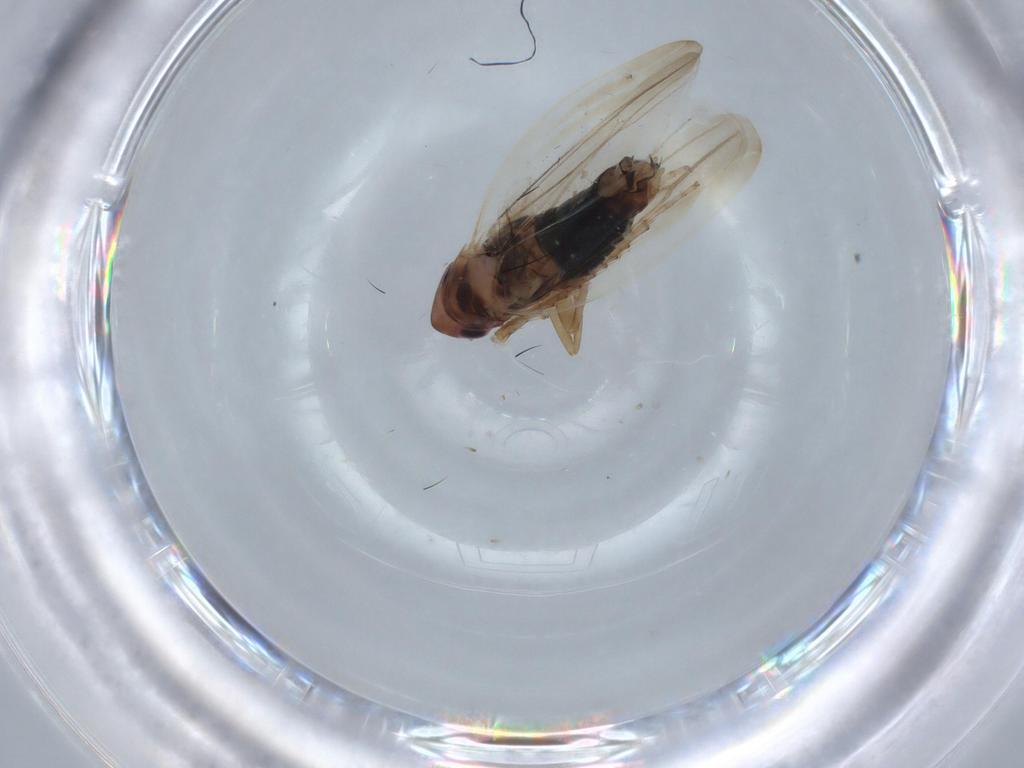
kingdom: Animalia
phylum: Arthropoda
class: Insecta
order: Hemiptera
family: Cicadellidae
